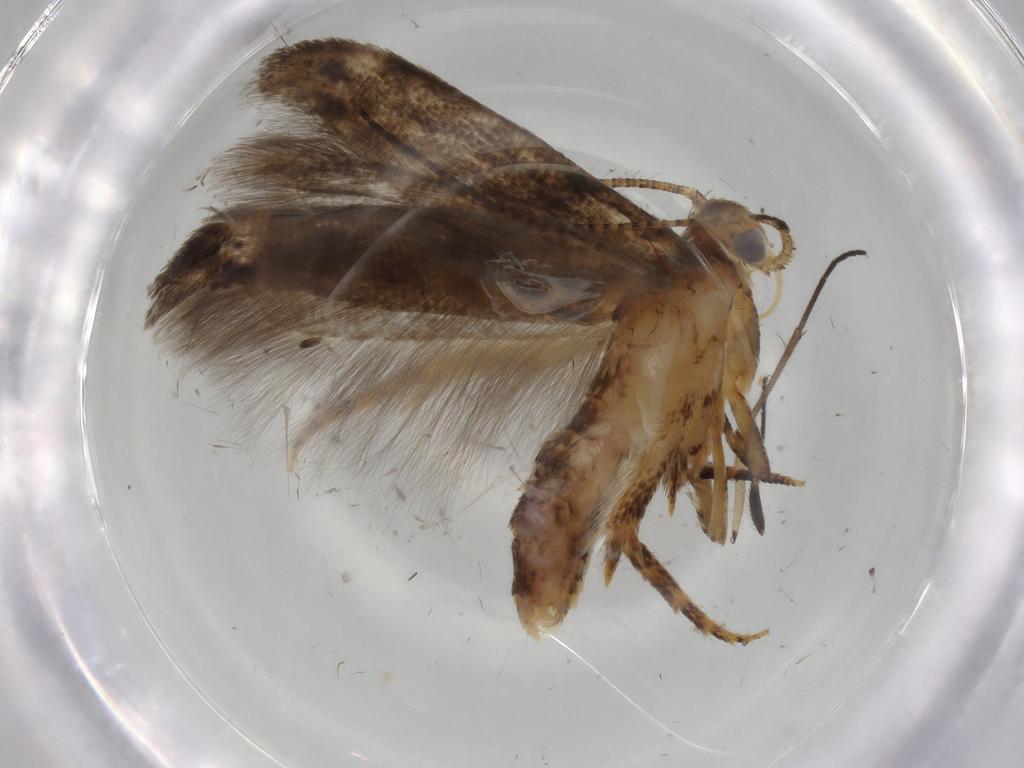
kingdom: Animalia
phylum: Arthropoda
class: Insecta
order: Lepidoptera
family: Gelechiidae
